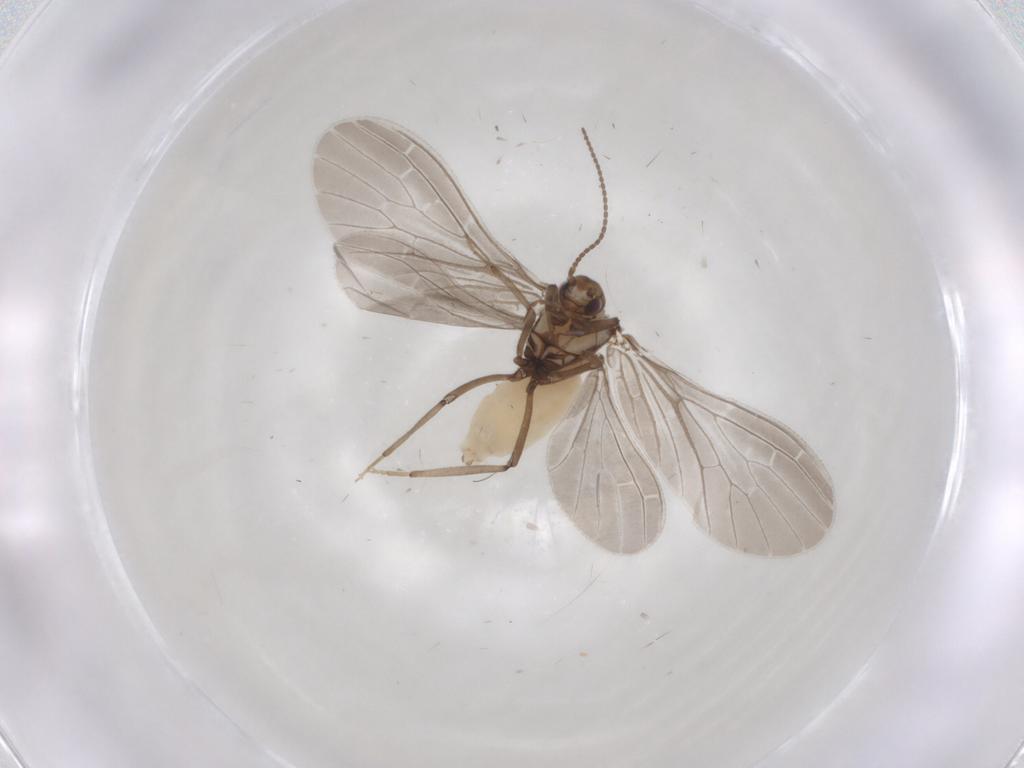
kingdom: Animalia
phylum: Arthropoda
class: Insecta
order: Neuroptera
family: Coniopterygidae
